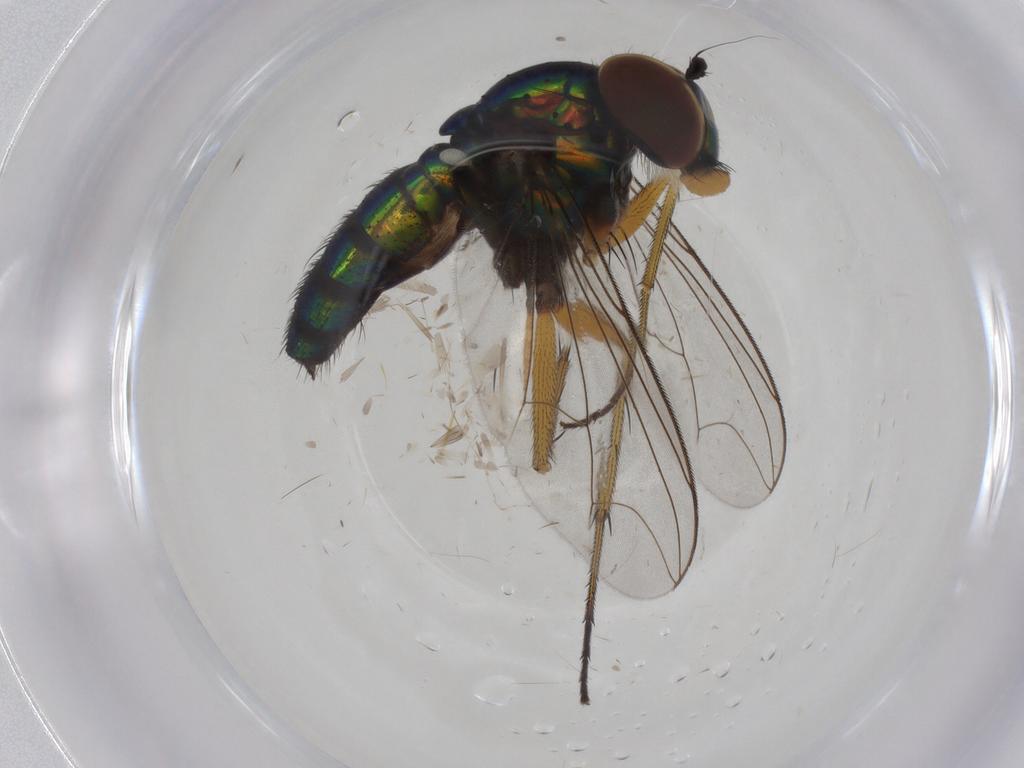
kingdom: Animalia
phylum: Arthropoda
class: Insecta
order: Diptera
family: Dolichopodidae
